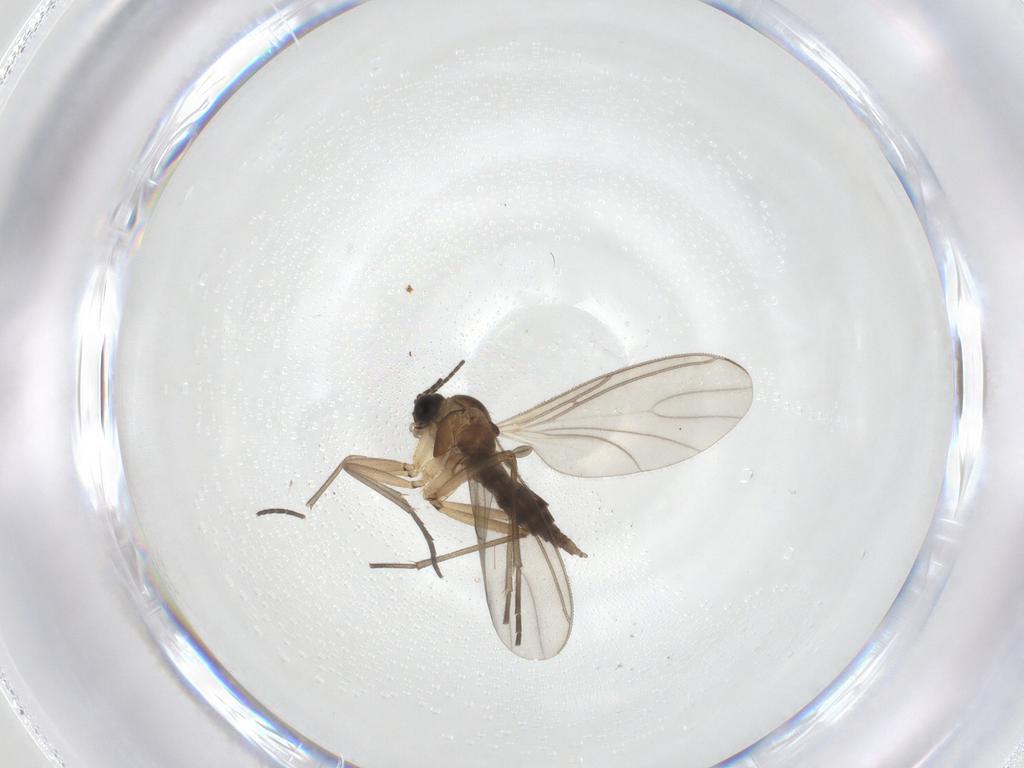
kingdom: Animalia
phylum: Arthropoda
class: Insecta
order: Diptera
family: Sciaridae
